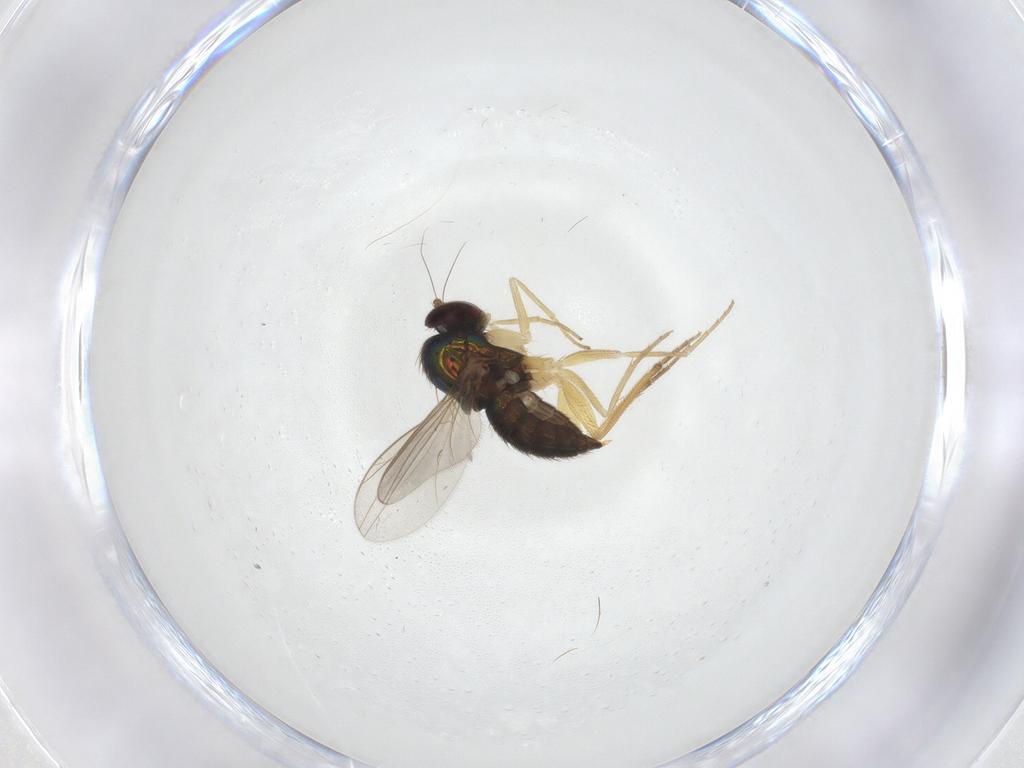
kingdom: Animalia
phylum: Arthropoda
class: Insecta
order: Diptera
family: Dolichopodidae
